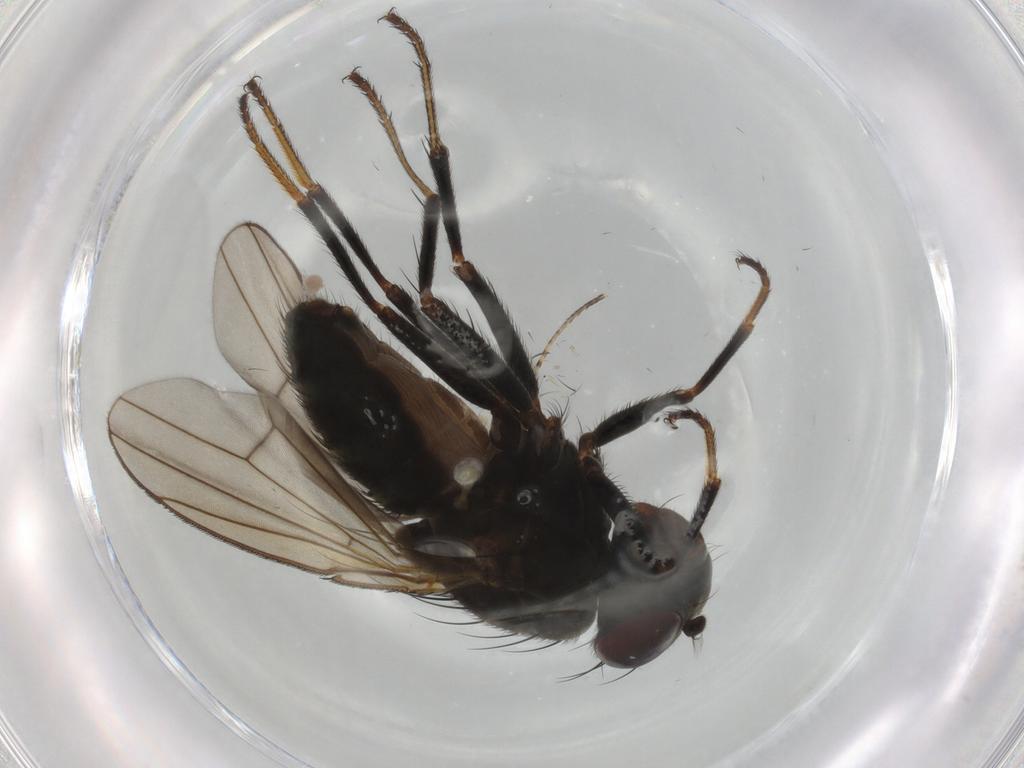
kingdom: Animalia
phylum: Arthropoda
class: Insecta
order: Diptera
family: Ephydridae
